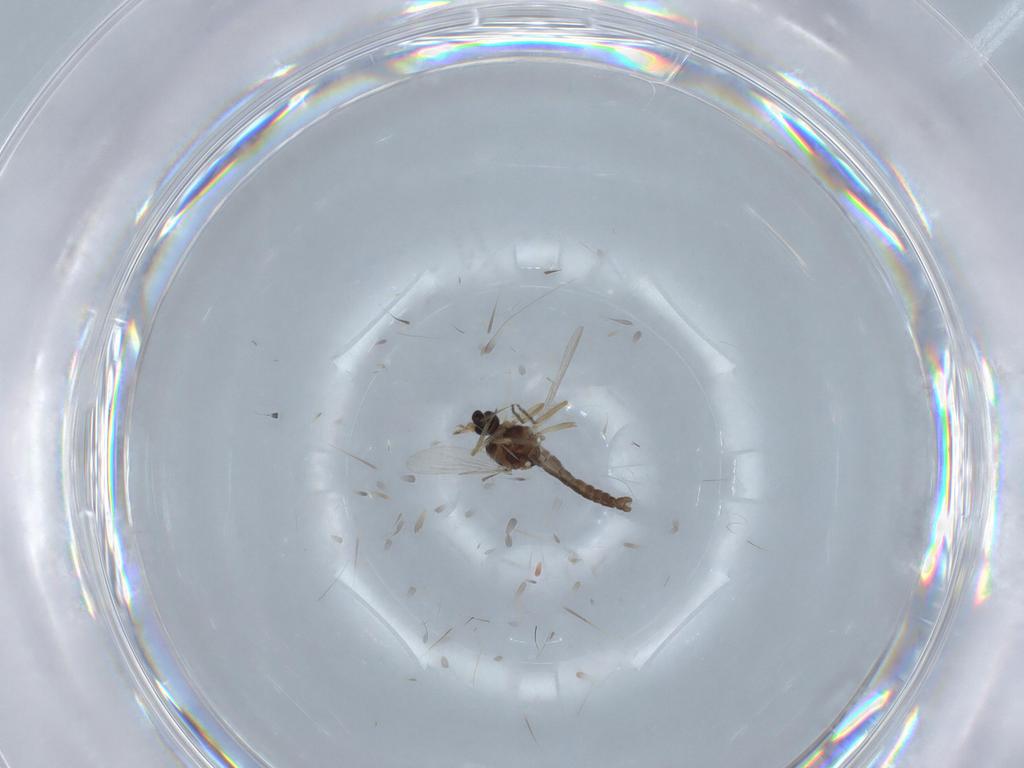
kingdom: Animalia
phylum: Arthropoda
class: Insecta
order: Diptera
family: Ceratopogonidae
